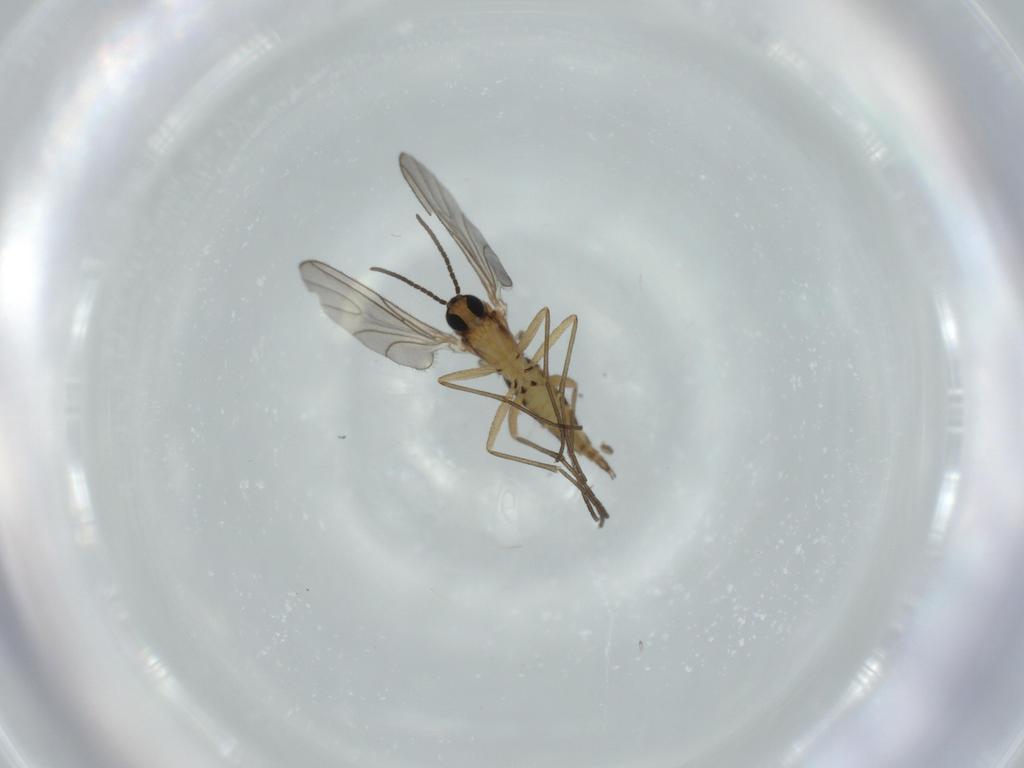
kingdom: Animalia
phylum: Arthropoda
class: Insecta
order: Diptera
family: Sciaridae
